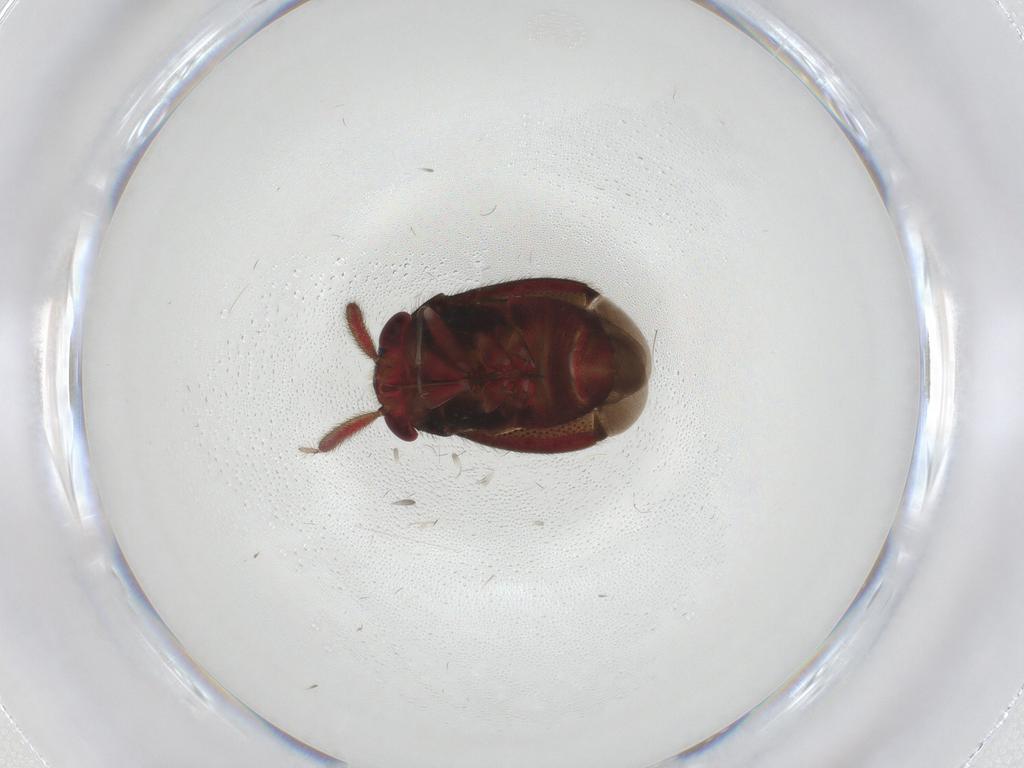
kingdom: Animalia
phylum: Arthropoda
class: Insecta
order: Hemiptera
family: Miridae
